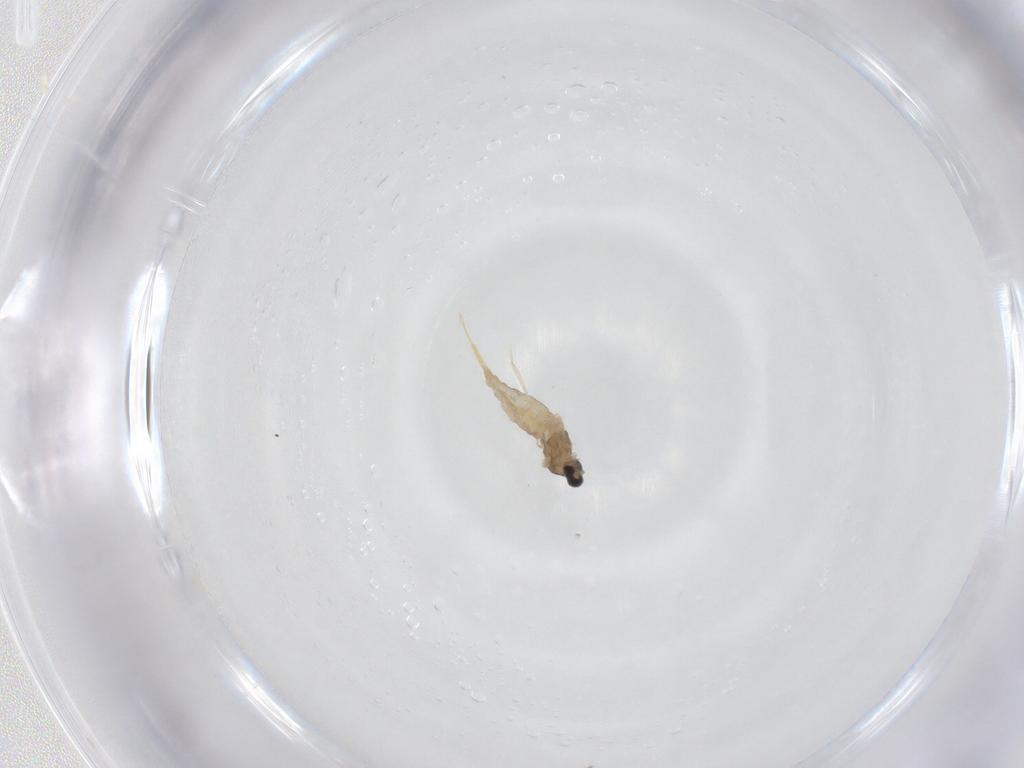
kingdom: Animalia
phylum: Arthropoda
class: Insecta
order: Diptera
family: Cecidomyiidae
